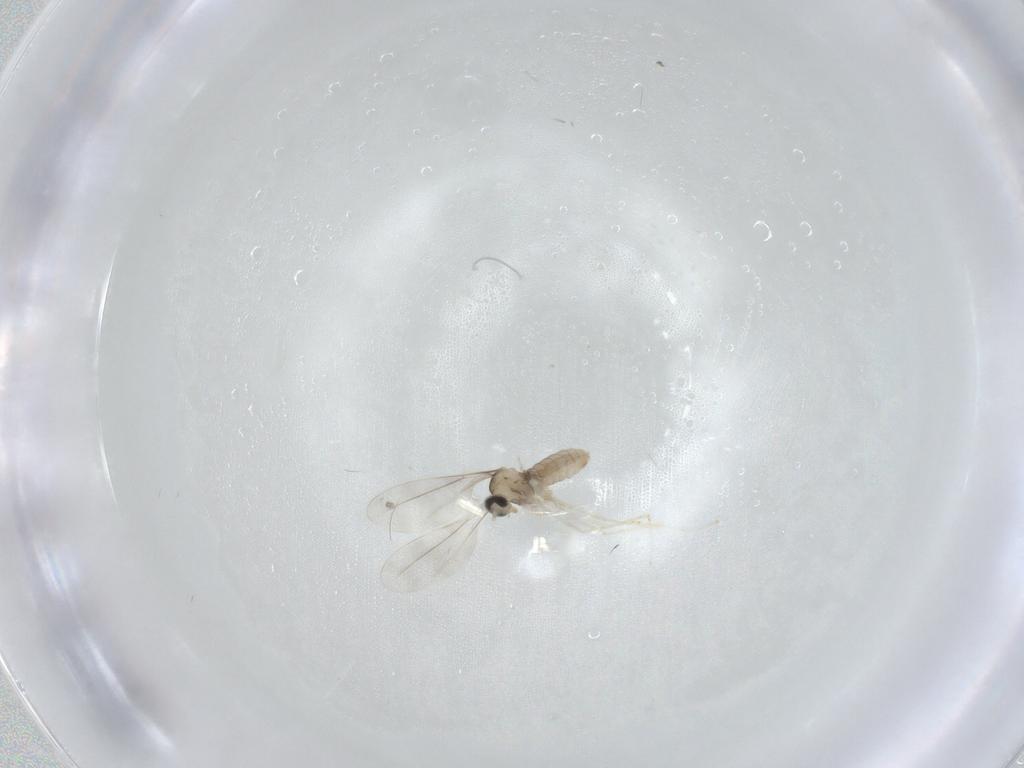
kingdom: Animalia
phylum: Arthropoda
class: Insecta
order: Diptera
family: Cecidomyiidae
